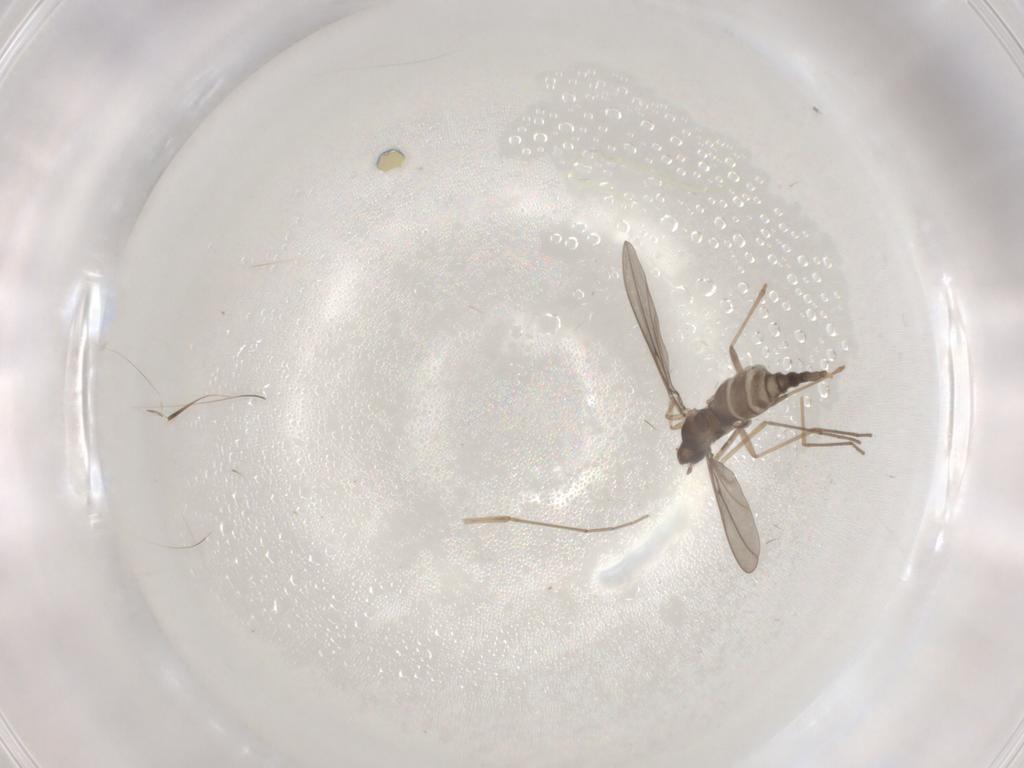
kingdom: Animalia
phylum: Arthropoda
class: Insecta
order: Diptera
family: Cecidomyiidae
